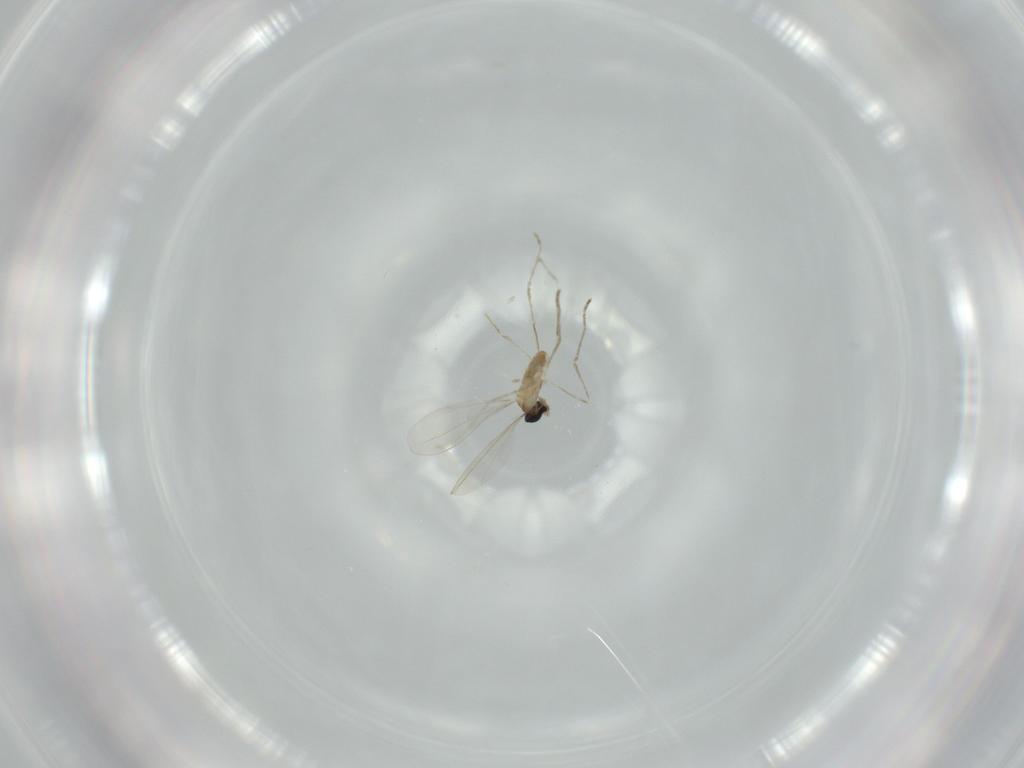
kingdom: Animalia
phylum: Arthropoda
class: Insecta
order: Diptera
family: Cecidomyiidae
